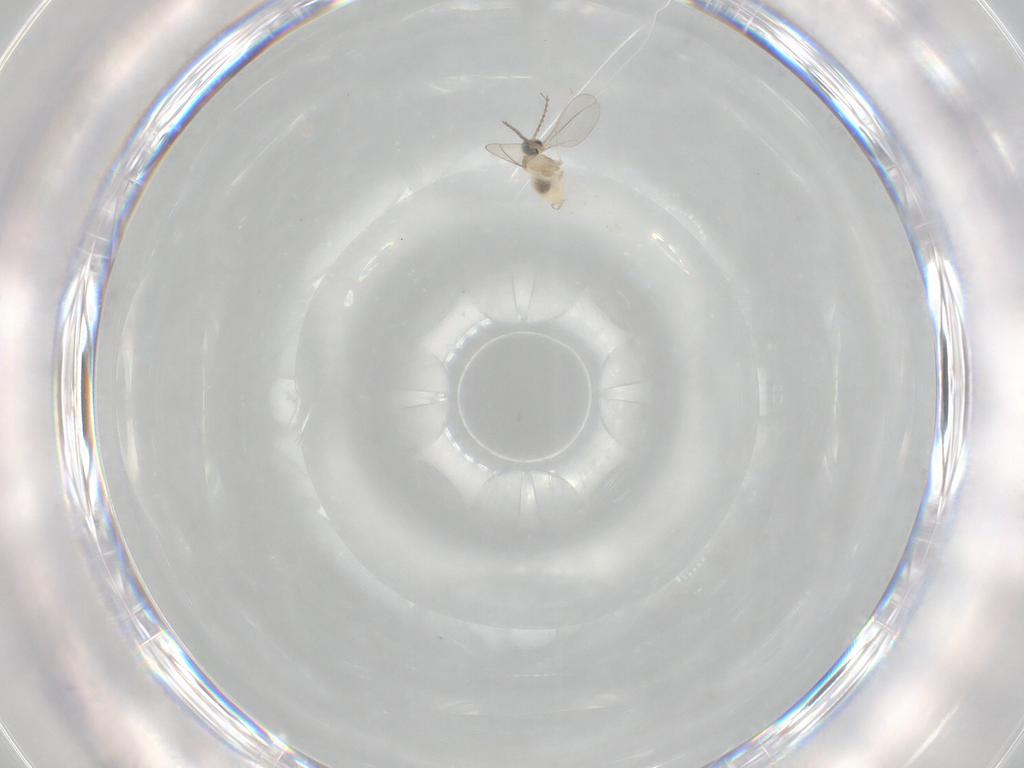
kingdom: Animalia
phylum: Arthropoda
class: Insecta
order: Diptera
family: Cecidomyiidae
